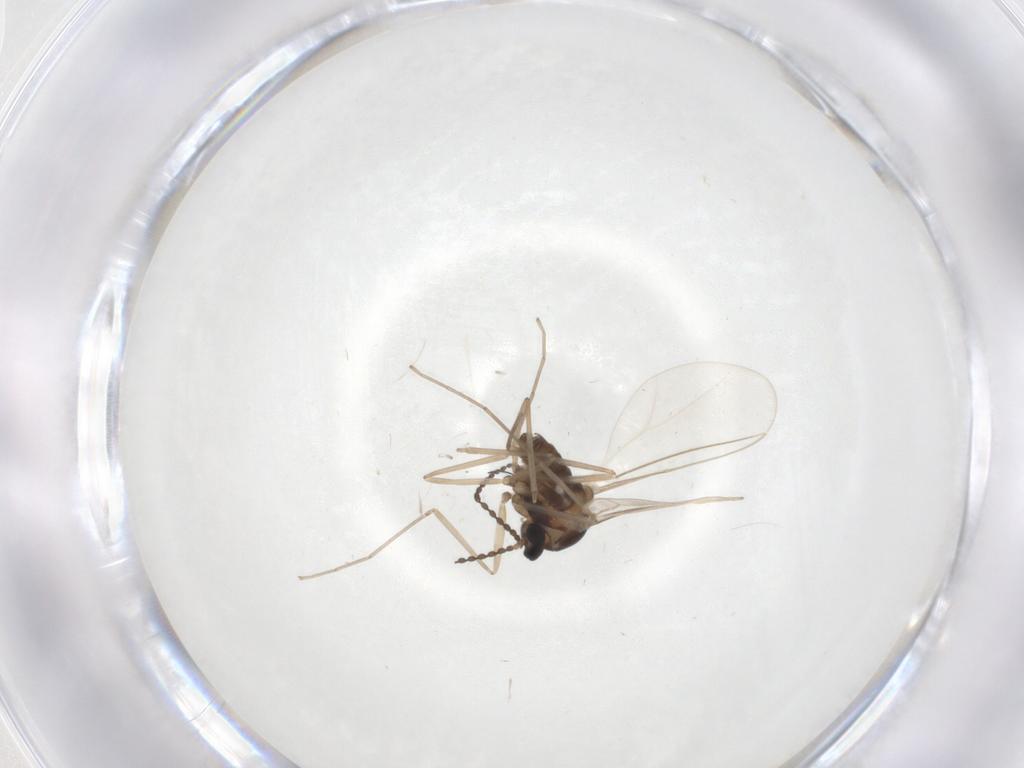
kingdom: Animalia
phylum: Arthropoda
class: Insecta
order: Diptera
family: Cecidomyiidae
